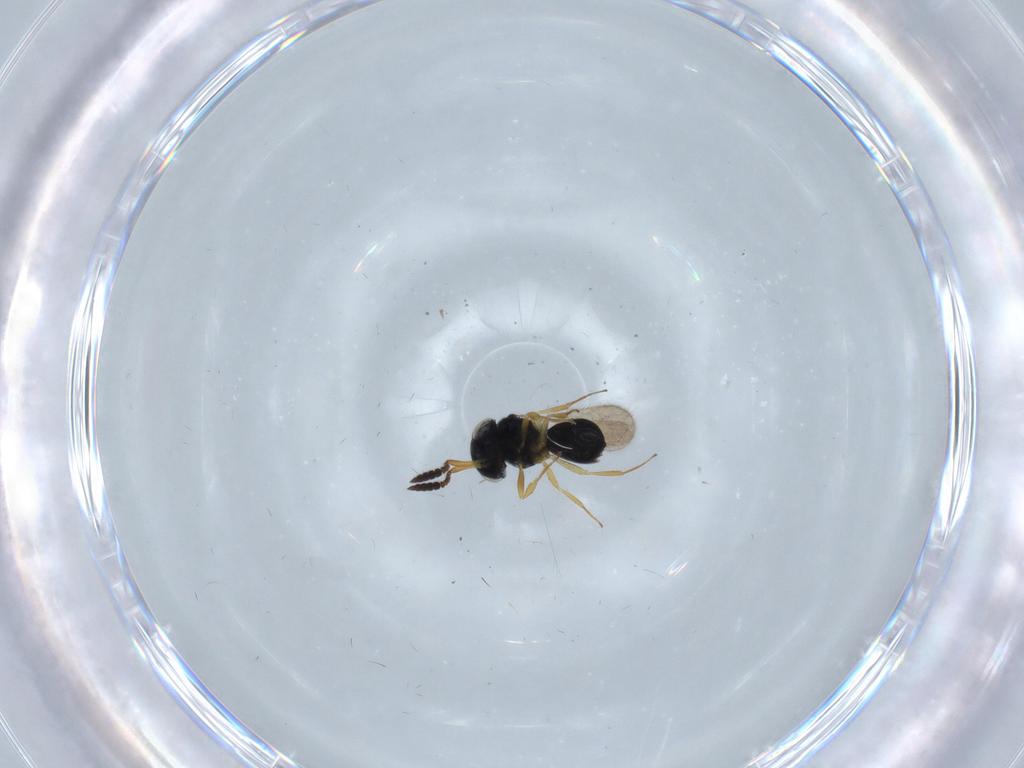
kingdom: Animalia
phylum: Arthropoda
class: Insecta
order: Hymenoptera
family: Scelionidae
